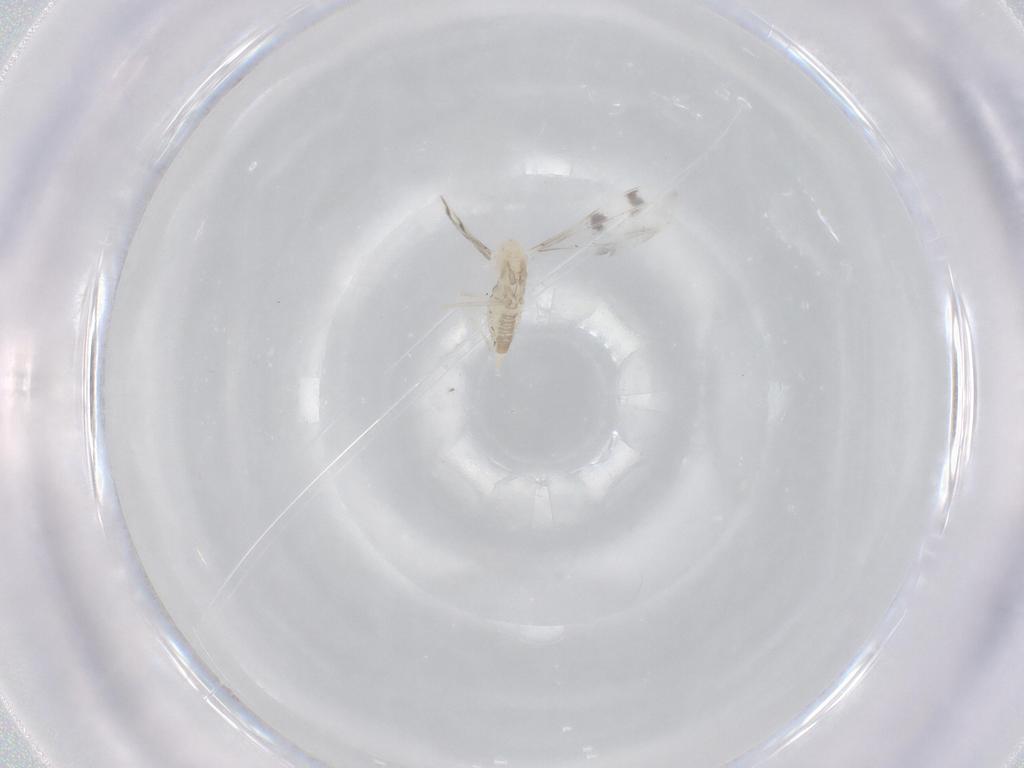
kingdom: Animalia
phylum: Arthropoda
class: Insecta
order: Diptera
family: Cecidomyiidae
